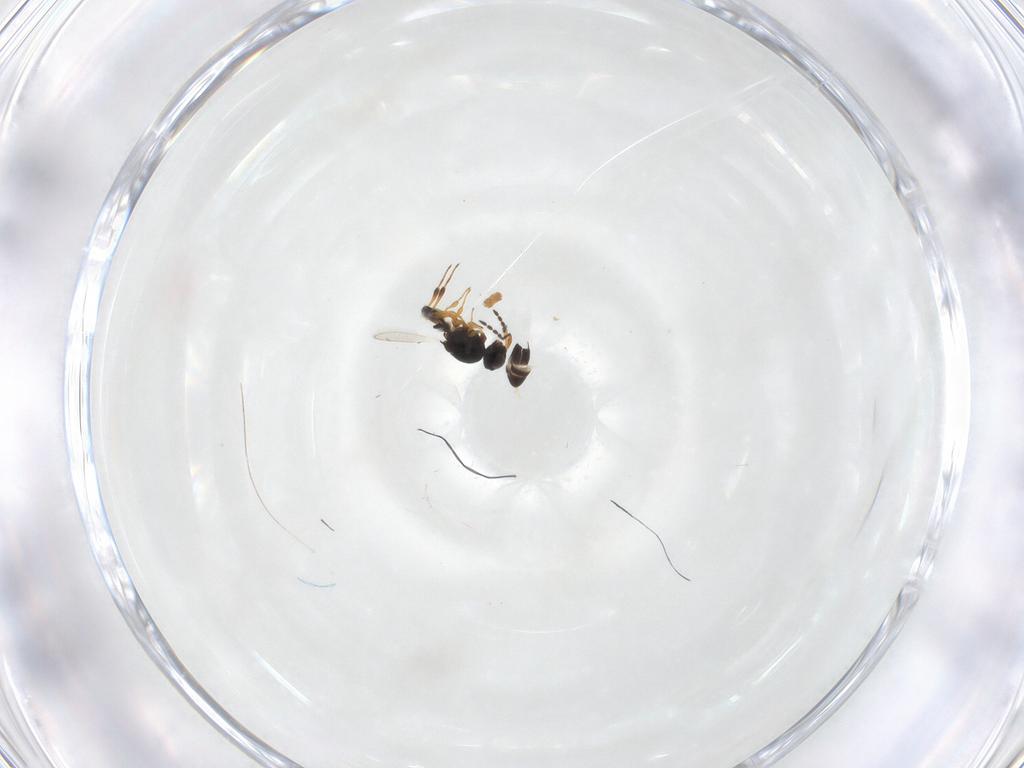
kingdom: Animalia
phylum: Arthropoda
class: Insecta
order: Hymenoptera
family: Platygastridae
